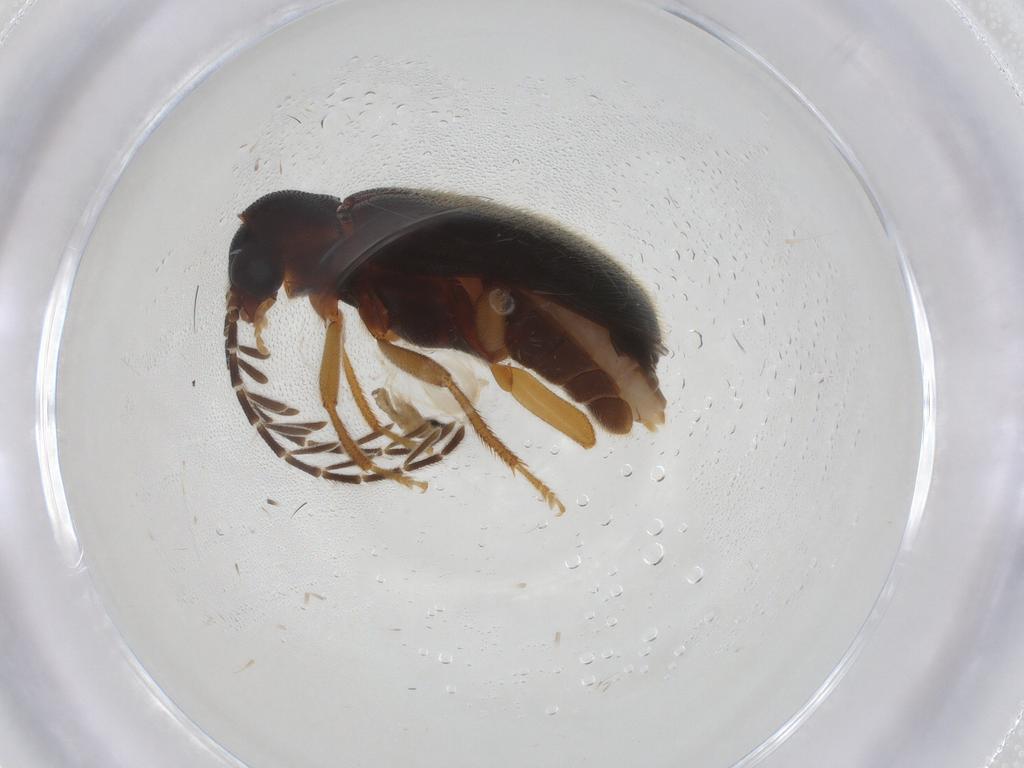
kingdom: Animalia
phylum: Arthropoda
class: Insecta
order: Coleoptera
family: Ptilodactylidae
